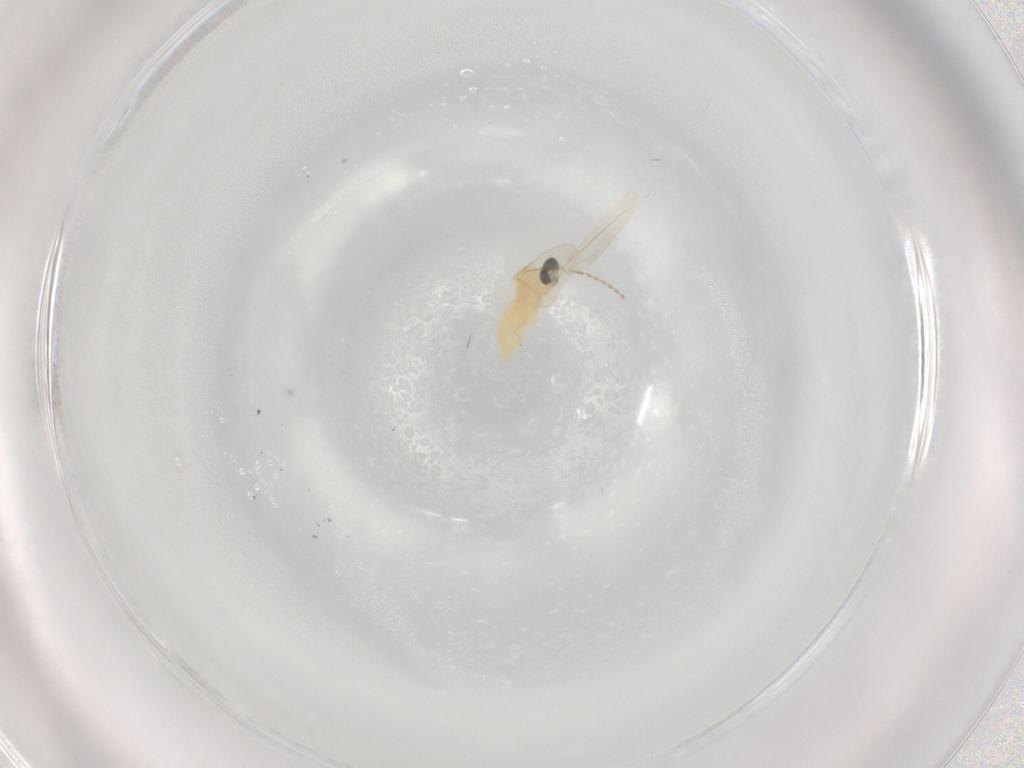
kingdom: Animalia
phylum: Arthropoda
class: Insecta
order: Diptera
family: Cecidomyiidae
